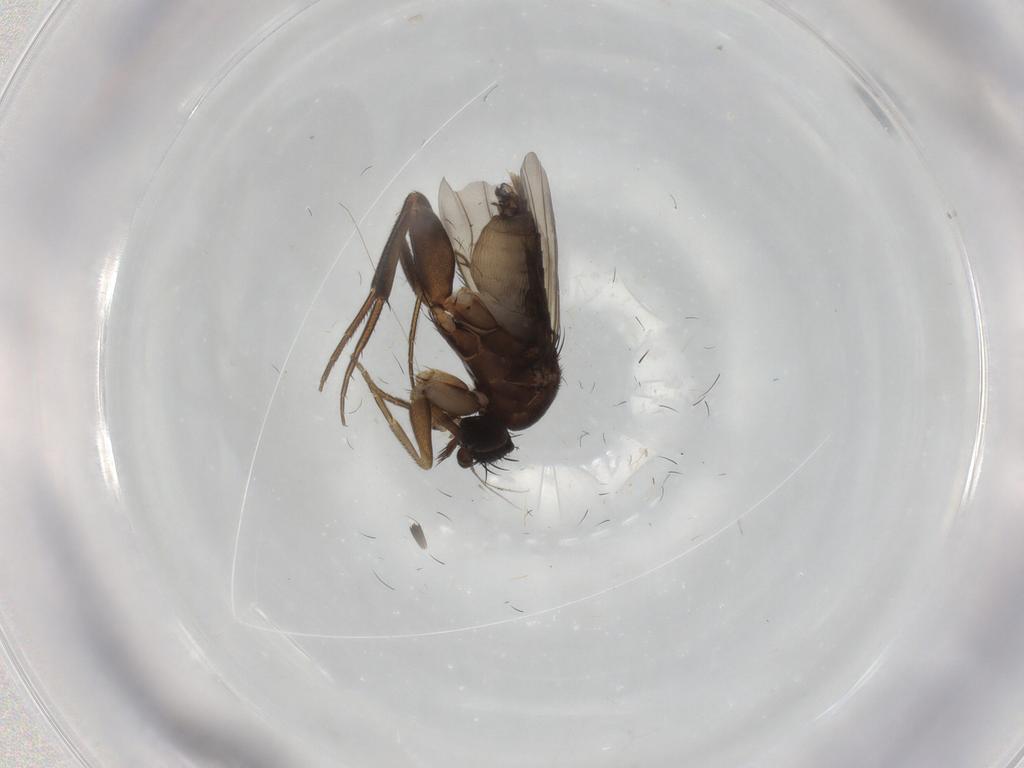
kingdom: Animalia
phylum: Arthropoda
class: Insecta
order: Diptera
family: Phoridae
